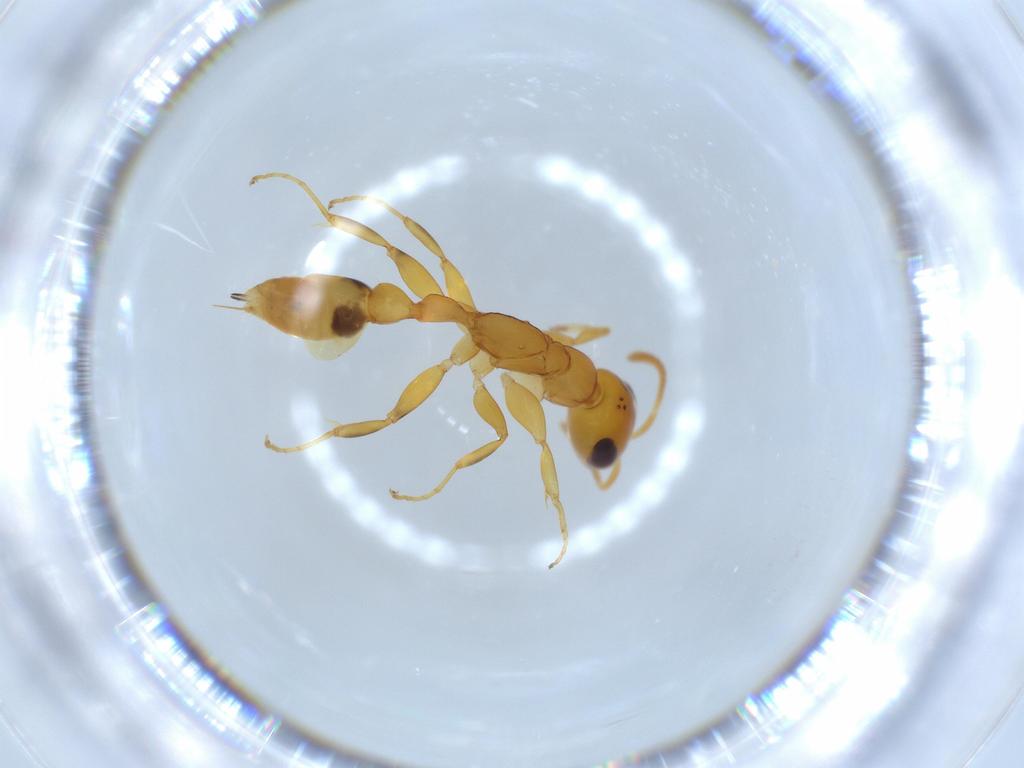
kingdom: Animalia
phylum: Arthropoda
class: Insecta
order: Hymenoptera
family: Formicidae
